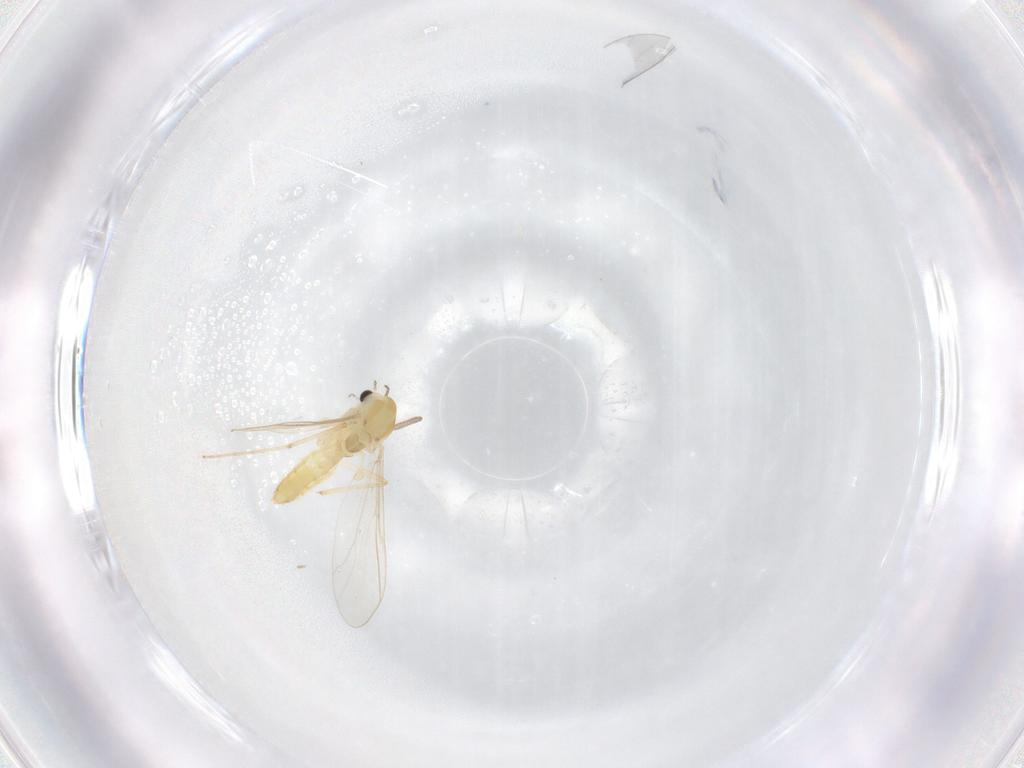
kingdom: Animalia
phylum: Arthropoda
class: Insecta
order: Diptera
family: Chironomidae
